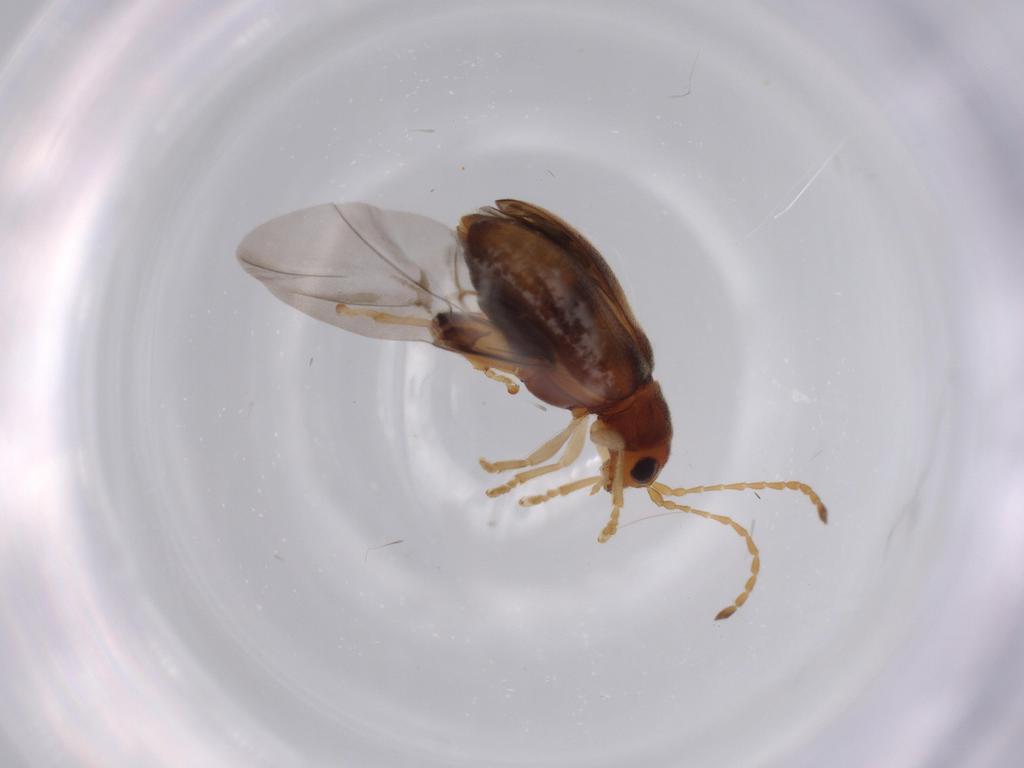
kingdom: Animalia
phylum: Arthropoda
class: Insecta
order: Coleoptera
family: Chrysomelidae
